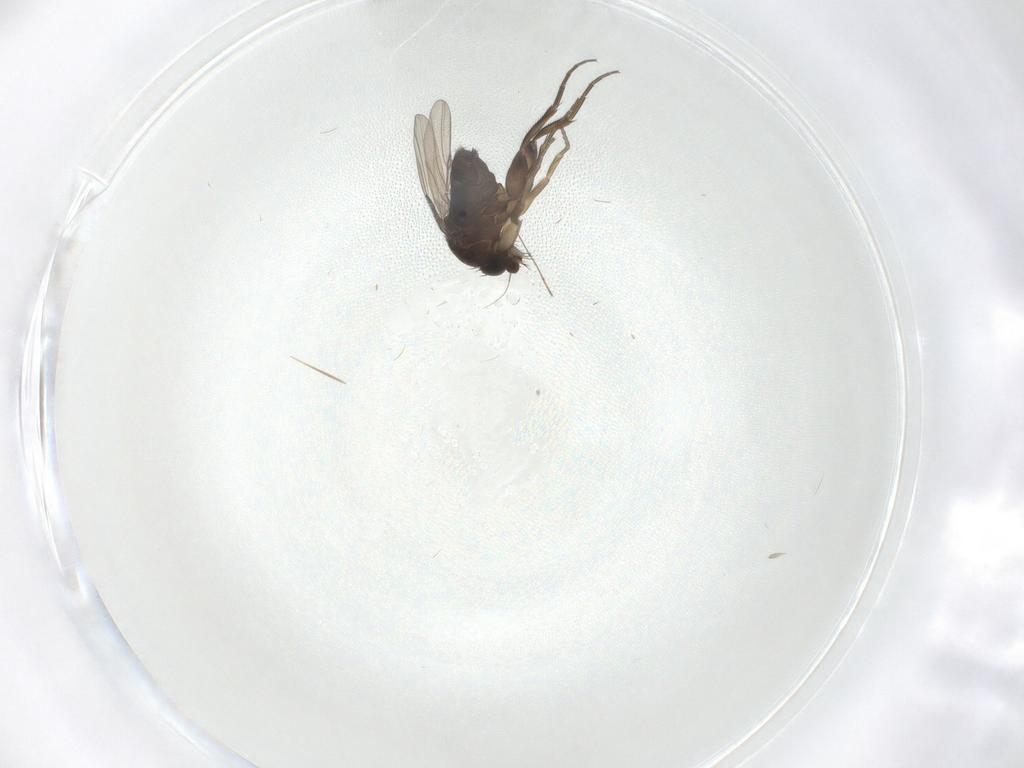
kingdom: Animalia
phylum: Arthropoda
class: Insecta
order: Diptera
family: Phoridae
